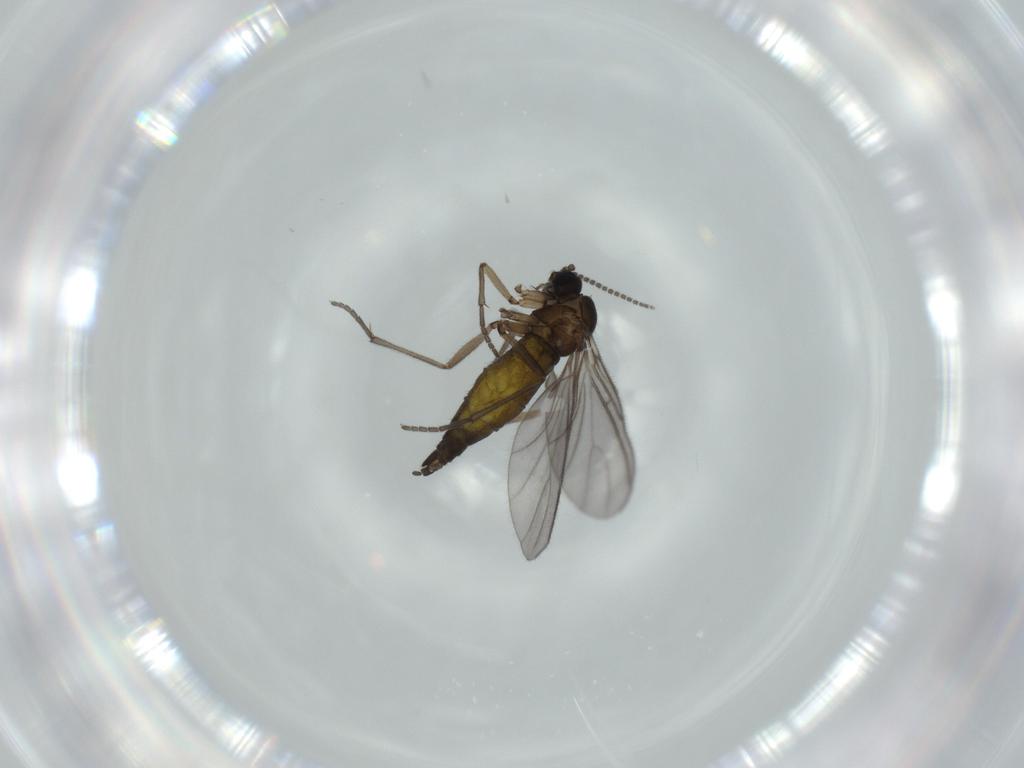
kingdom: Animalia
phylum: Arthropoda
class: Insecta
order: Diptera
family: Sciaridae
